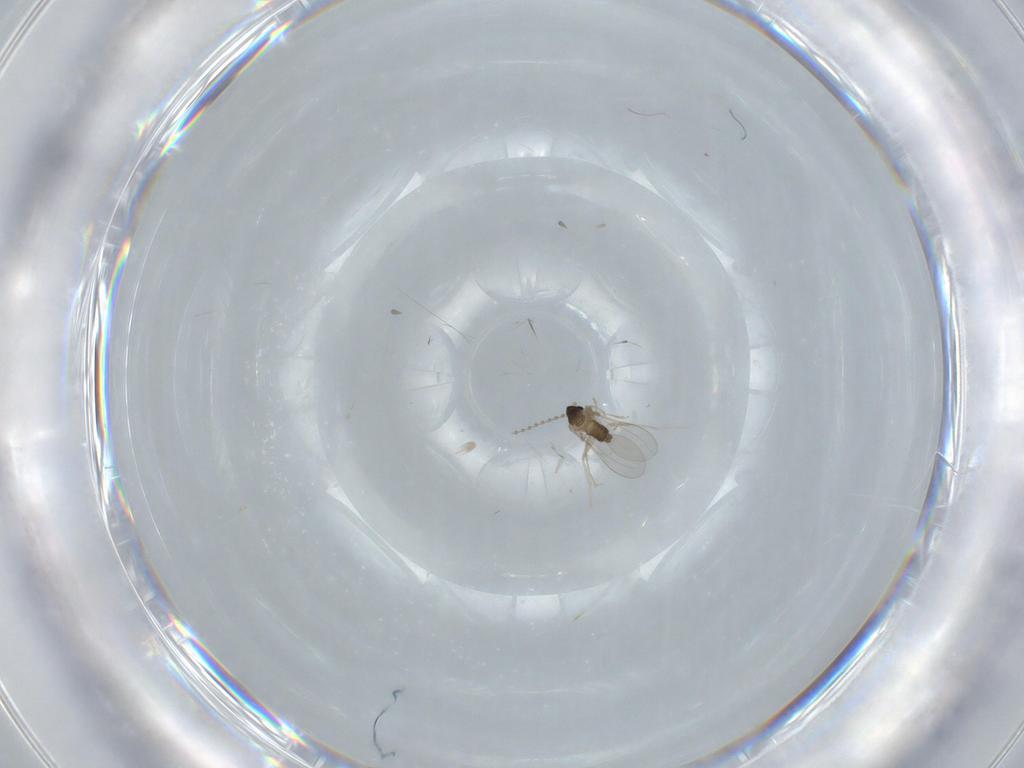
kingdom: Animalia
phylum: Arthropoda
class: Insecta
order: Diptera
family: Cecidomyiidae
